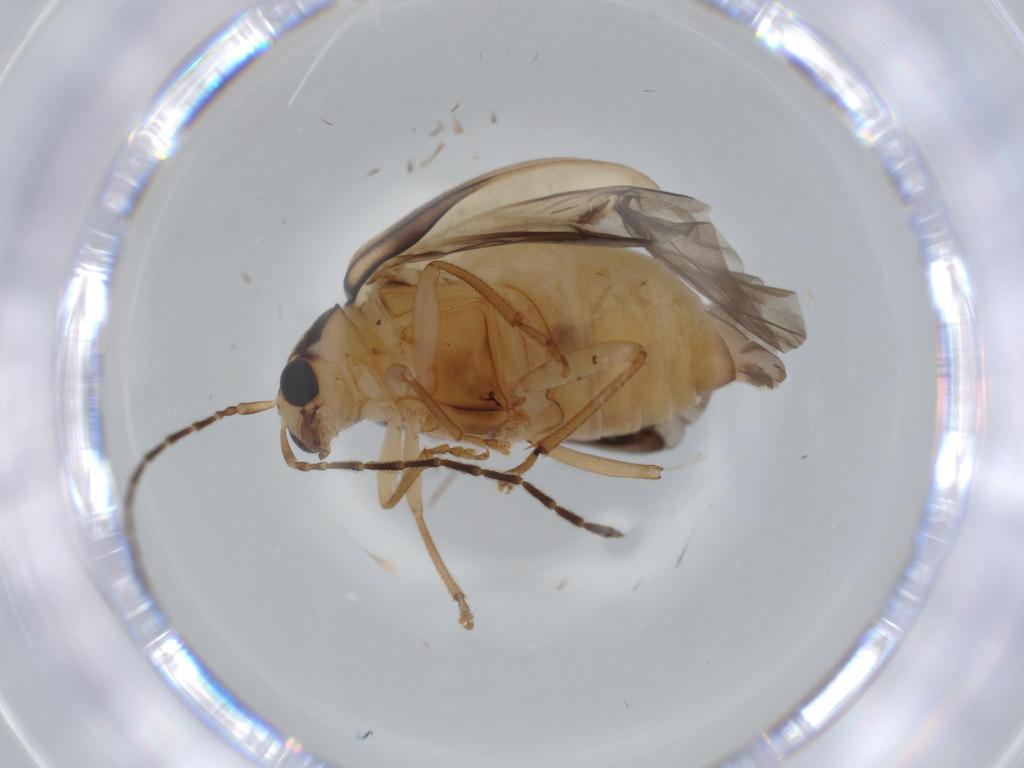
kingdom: Animalia
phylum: Arthropoda
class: Insecta
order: Coleoptera
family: Chrysomelidae
